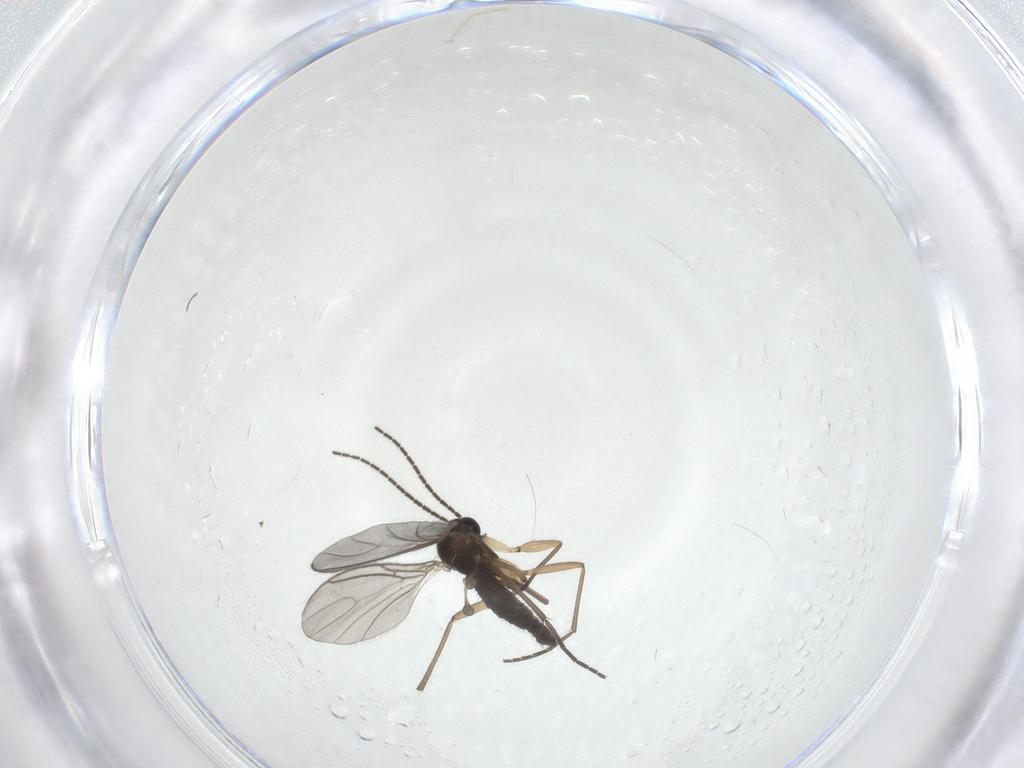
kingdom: Animalia
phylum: Arthropoda
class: Insecta
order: Diptera
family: Sciaridae
